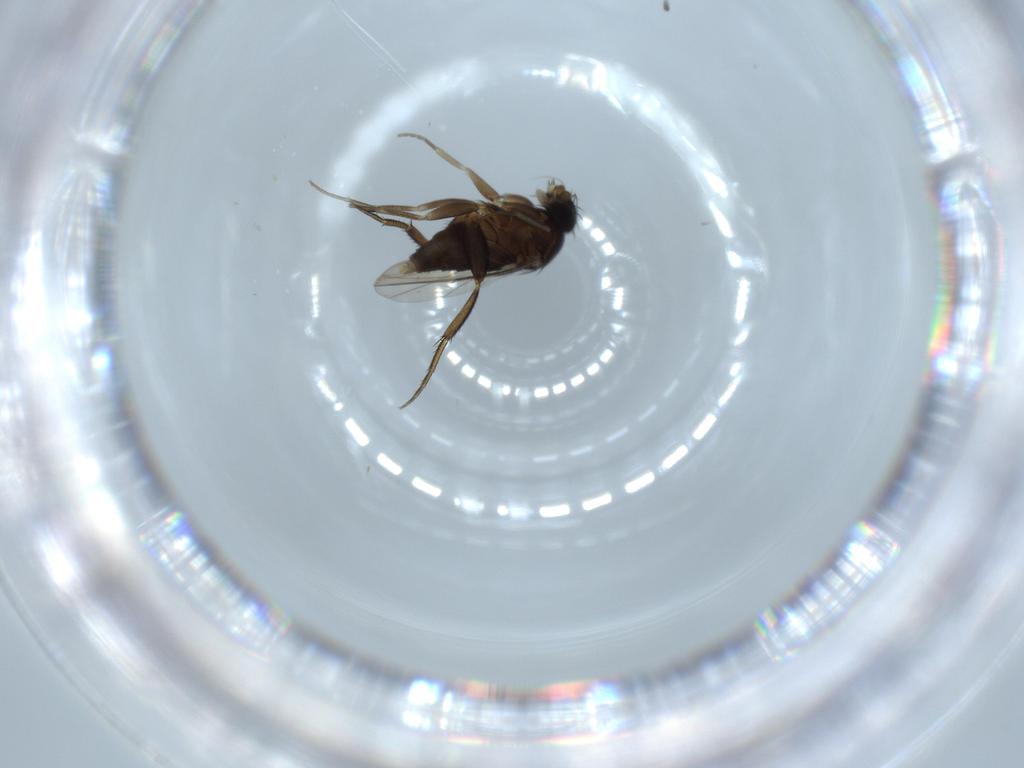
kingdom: Animalia
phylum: Arthropoda
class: Insecta
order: Diptera
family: Phoridae
